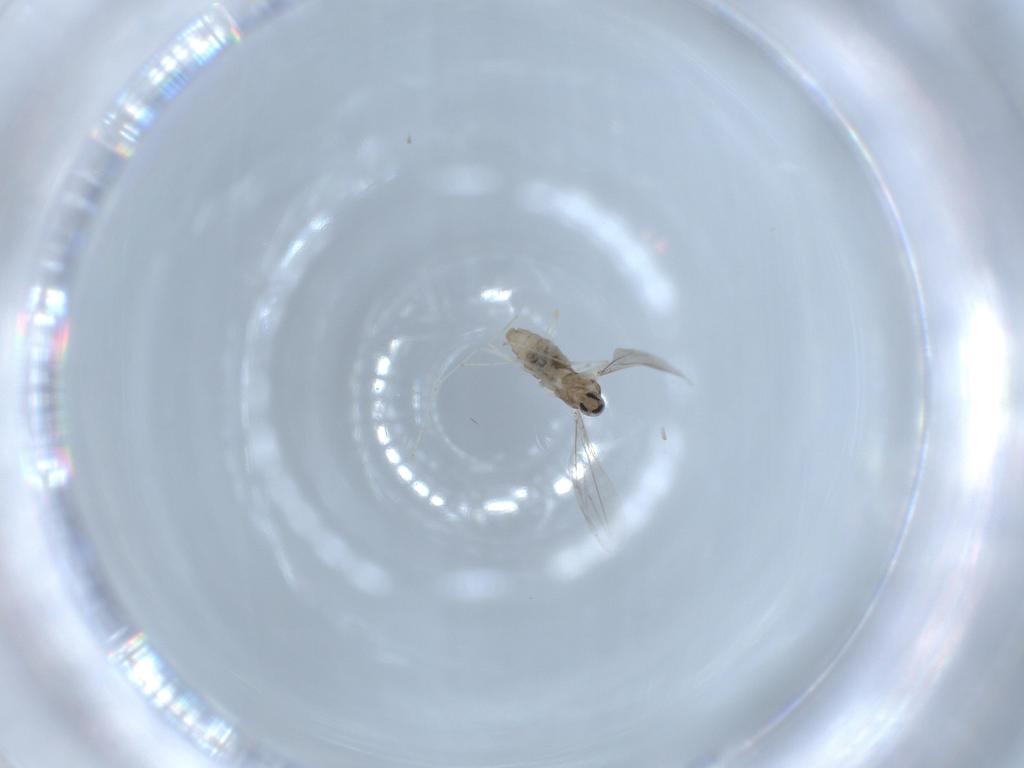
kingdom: Animalia
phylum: Arthropoda
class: Insecta
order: Diptera
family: Cecidomyiidae
